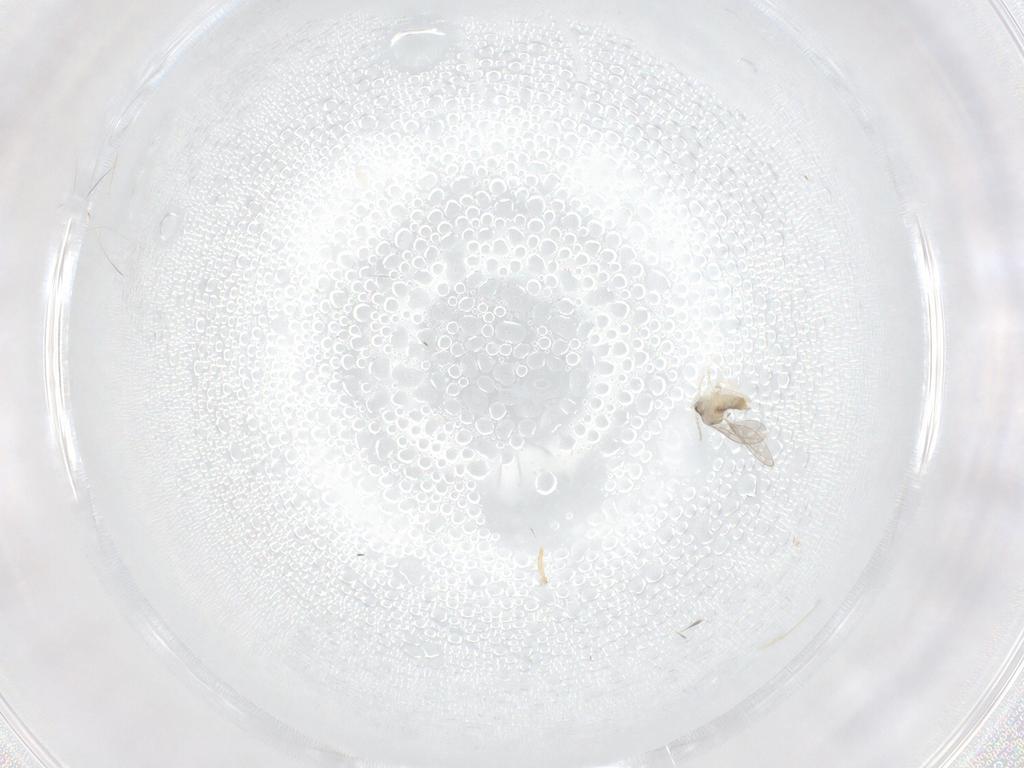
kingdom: Animalia
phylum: Arthropoda
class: Insecta
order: Diptera
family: Cecidomyiidae
